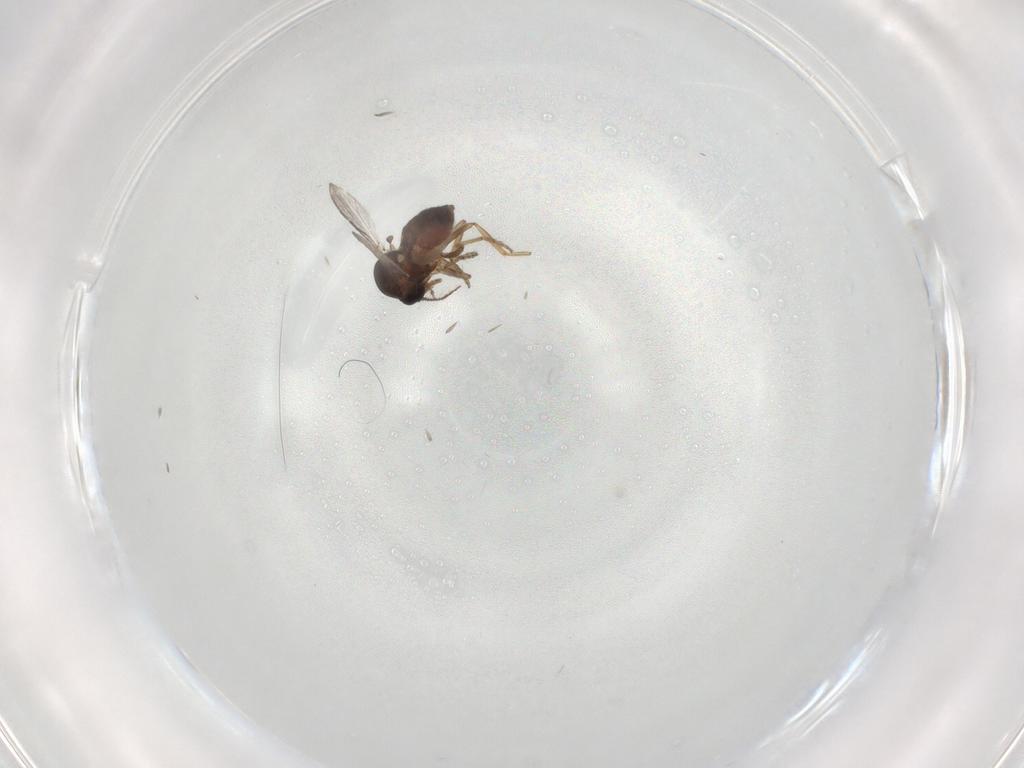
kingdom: Animalia
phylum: Arthropoda
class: Insecta
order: Diptera
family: Ceratopogonidae
